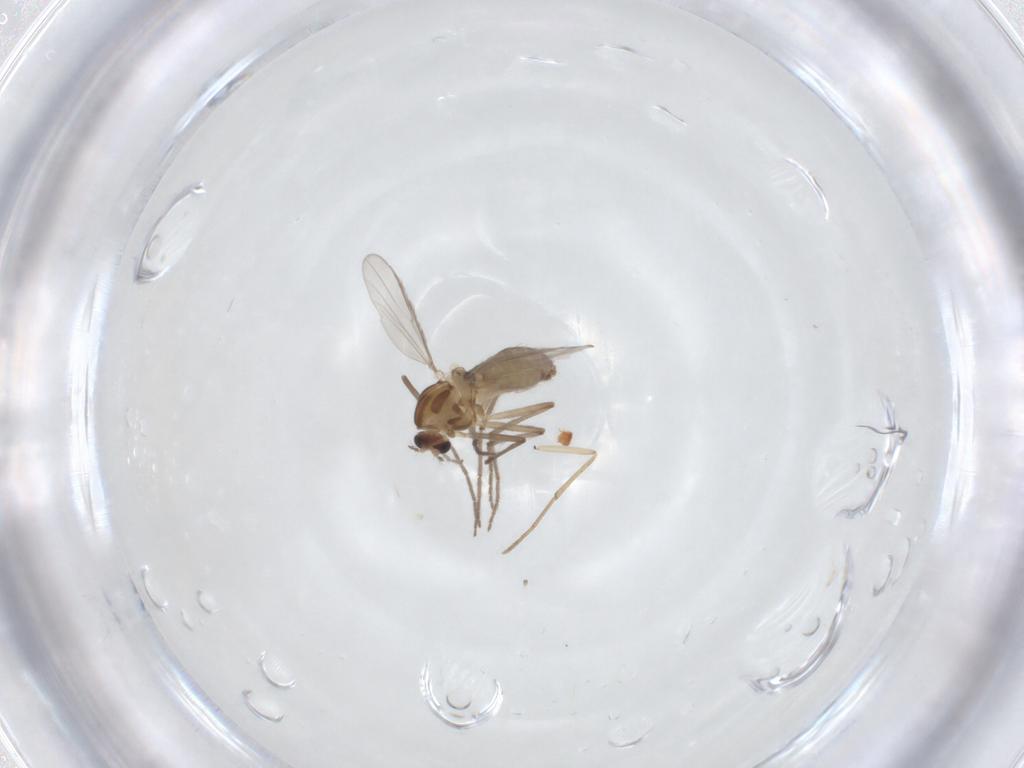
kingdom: Animalia
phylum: Arthropoda
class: Insecta
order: Diptera
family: Chironomidae
